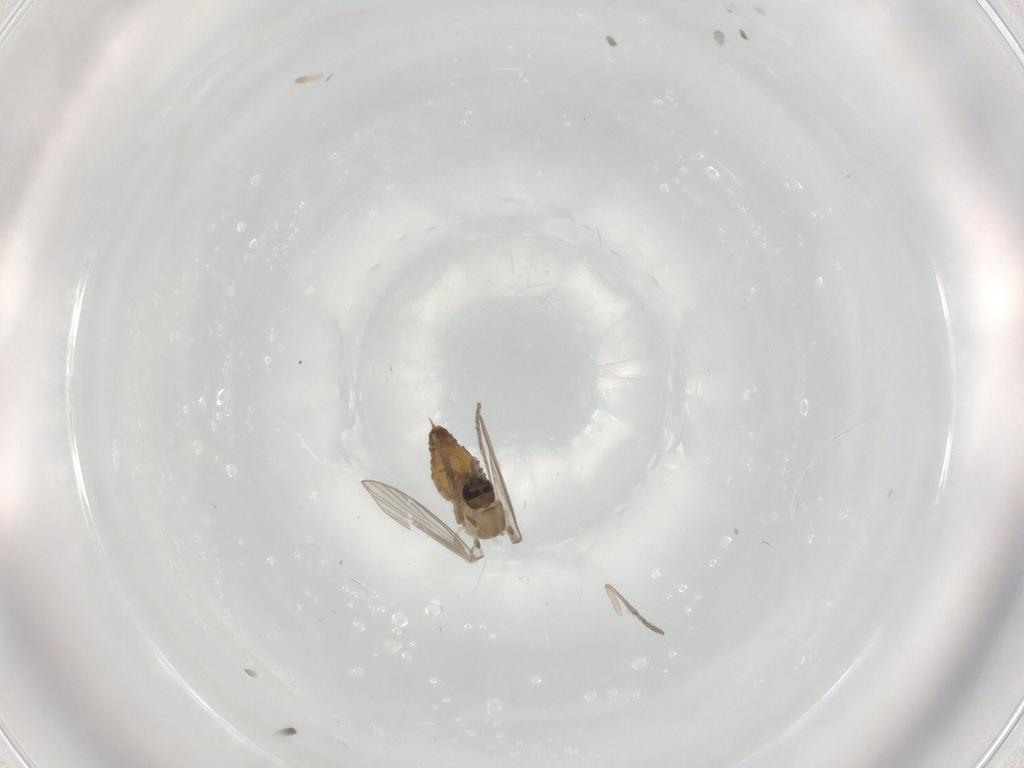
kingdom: Animalia
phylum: Arthropoda
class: Insecta
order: Diptera
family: Psychodidae
